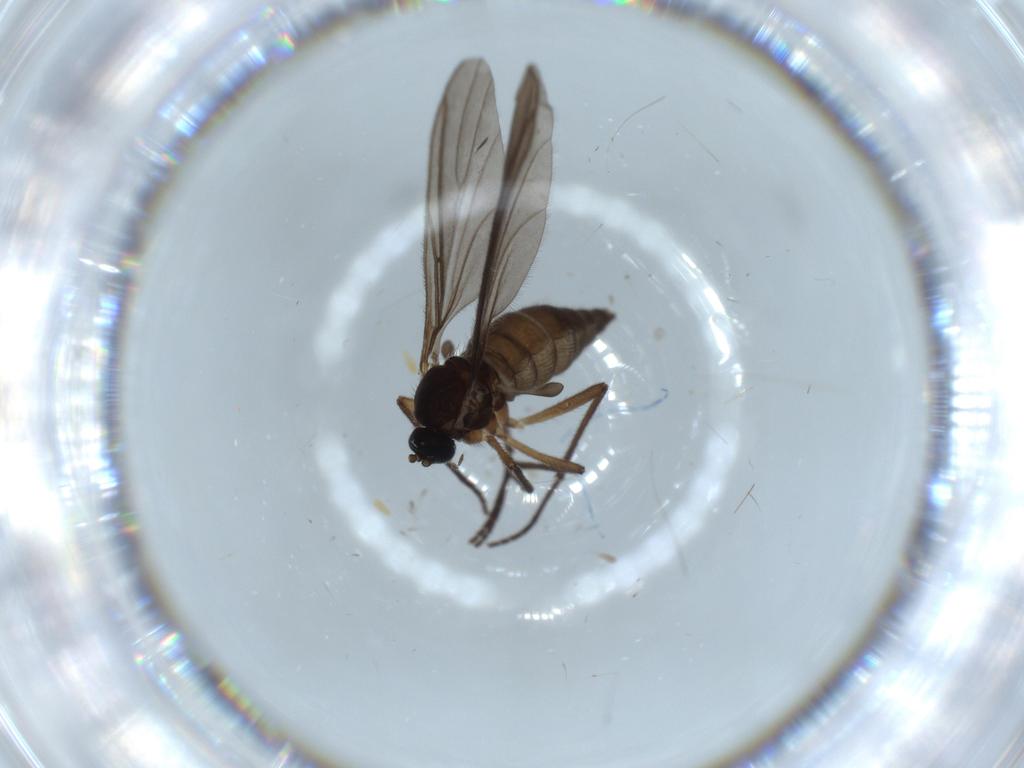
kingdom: Animalia
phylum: Arthropoda
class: Insecta
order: Diptera
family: Sciaridae
